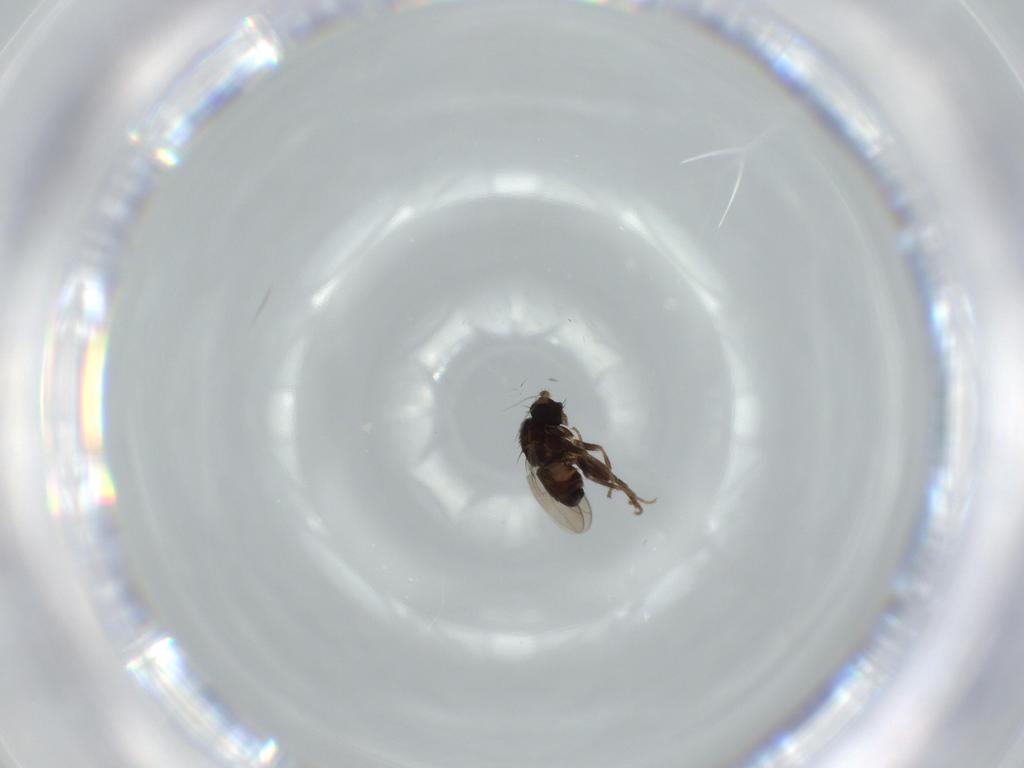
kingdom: Animalia
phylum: Arthropoda
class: Insecta
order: Diptera
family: Sphaeroceridae
